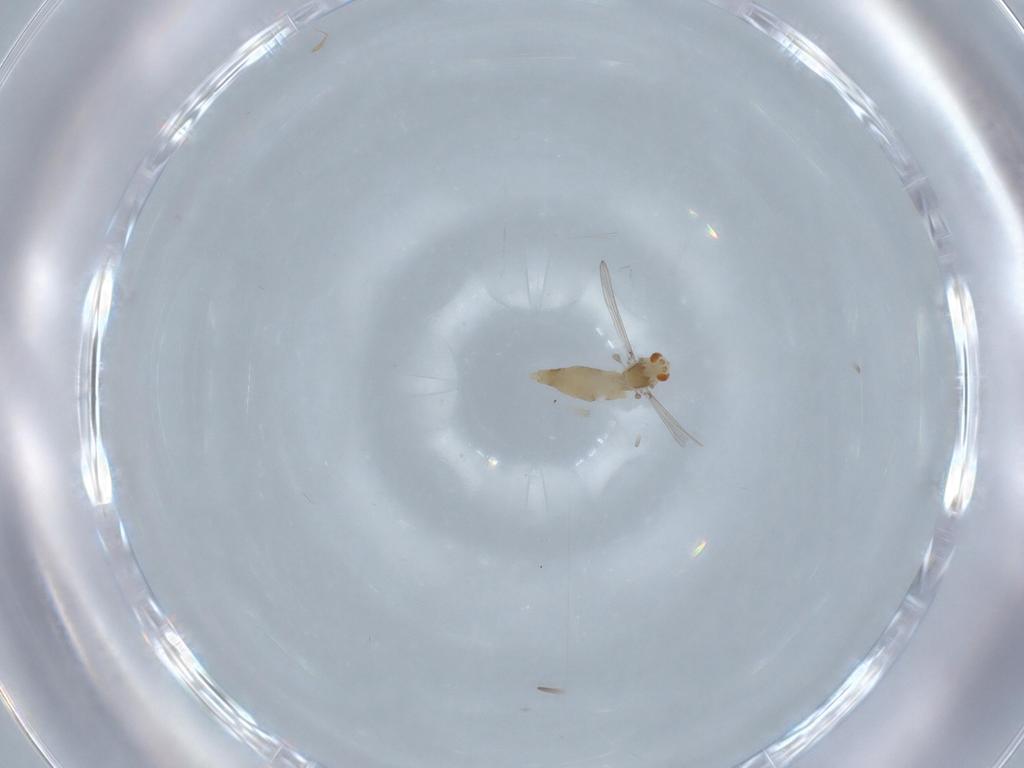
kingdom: Animalia
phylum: Arthropoda
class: Insecta
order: Diptera
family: Chironomidae
